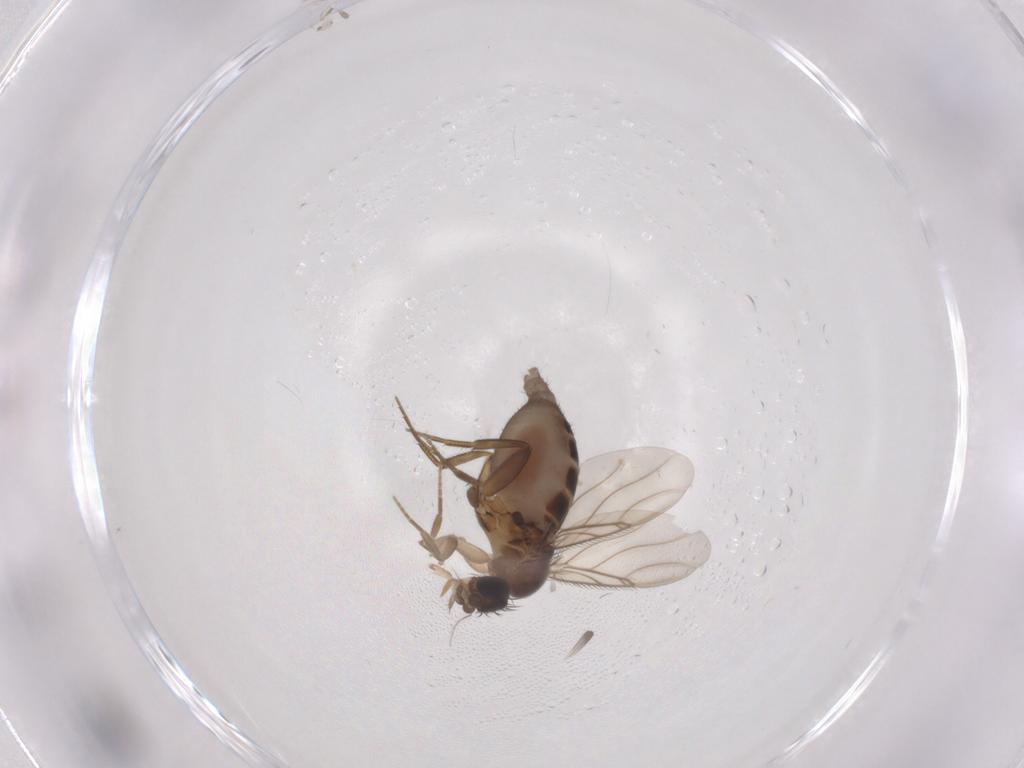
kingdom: Animalia
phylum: Arthropoda
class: Insecta
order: Diptera
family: Phoridae
